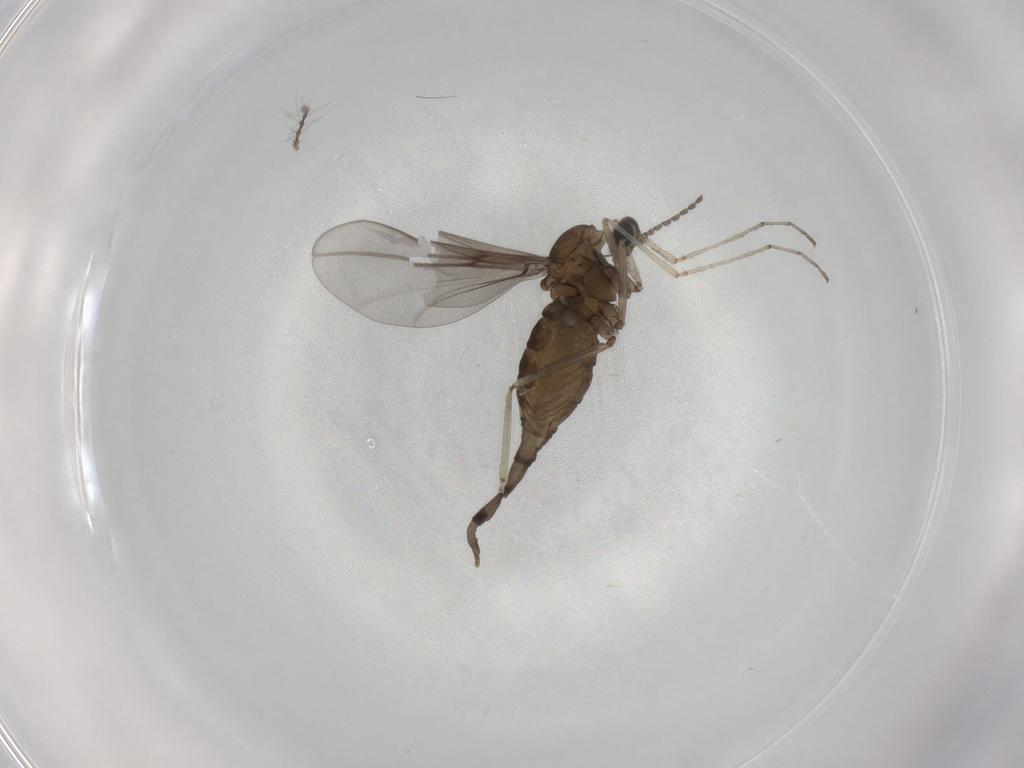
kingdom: Animalia
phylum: Arthropoda
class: Insecta
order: Diptera
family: Cecidomyiidae
